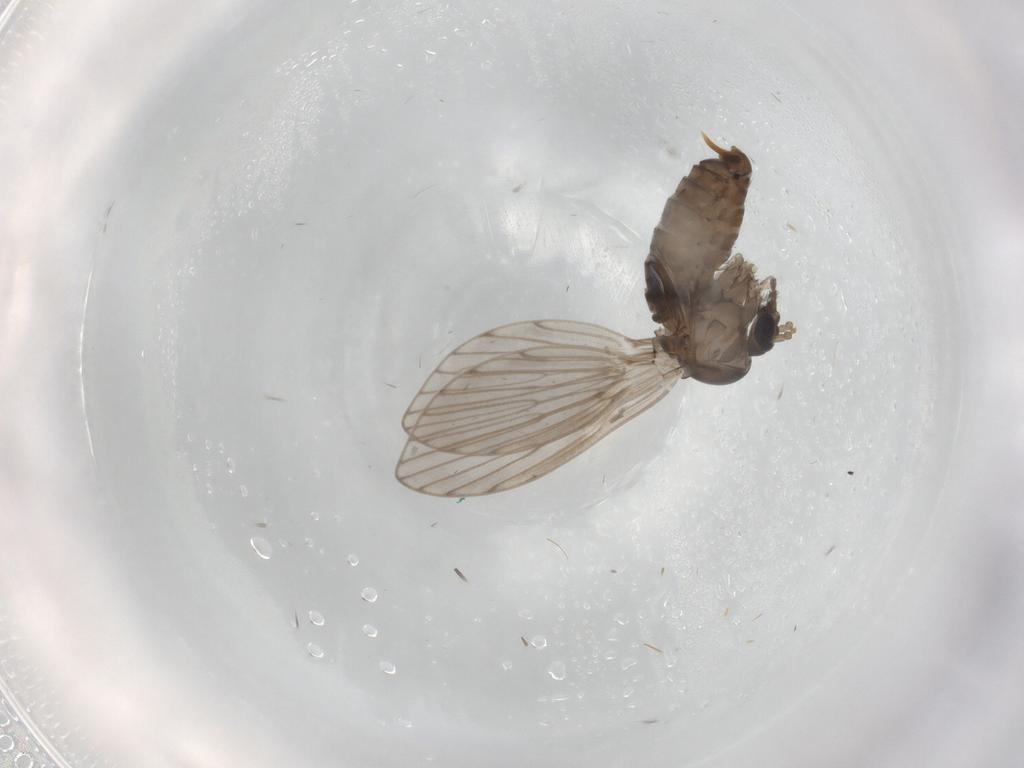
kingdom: Animalia
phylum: Arthropoda
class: Insecta
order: Diptera
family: Psychodidae
